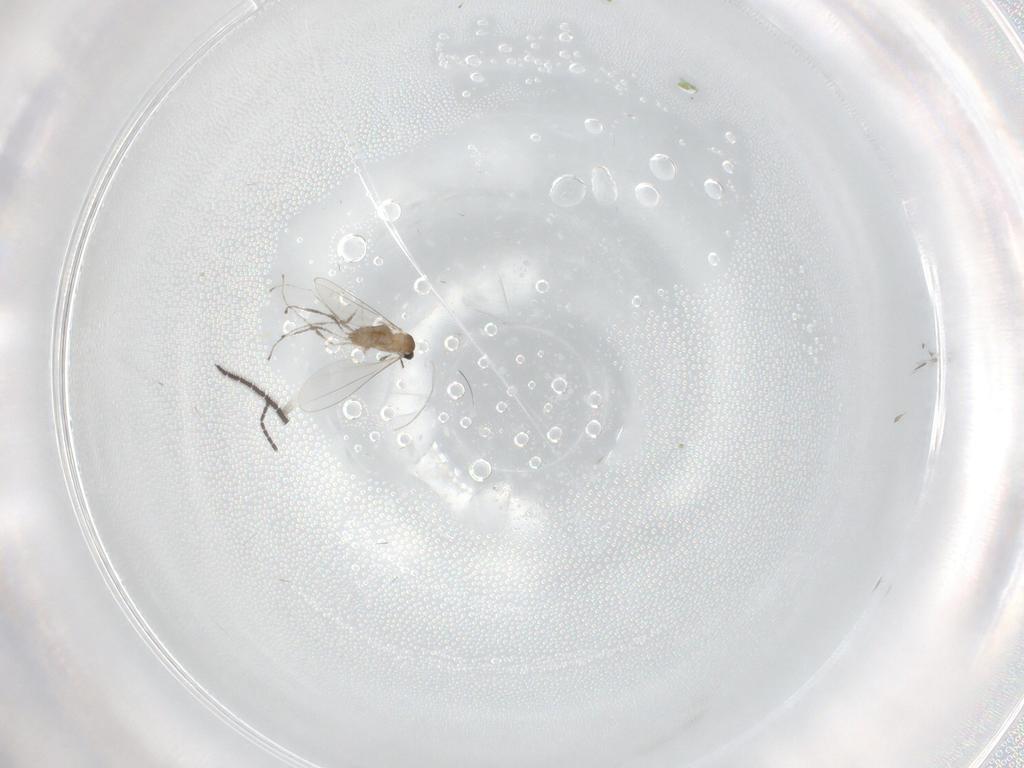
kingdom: Animalia
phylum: Arthropoda
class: Insecta
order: Diptera
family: Cecidomyiidae
